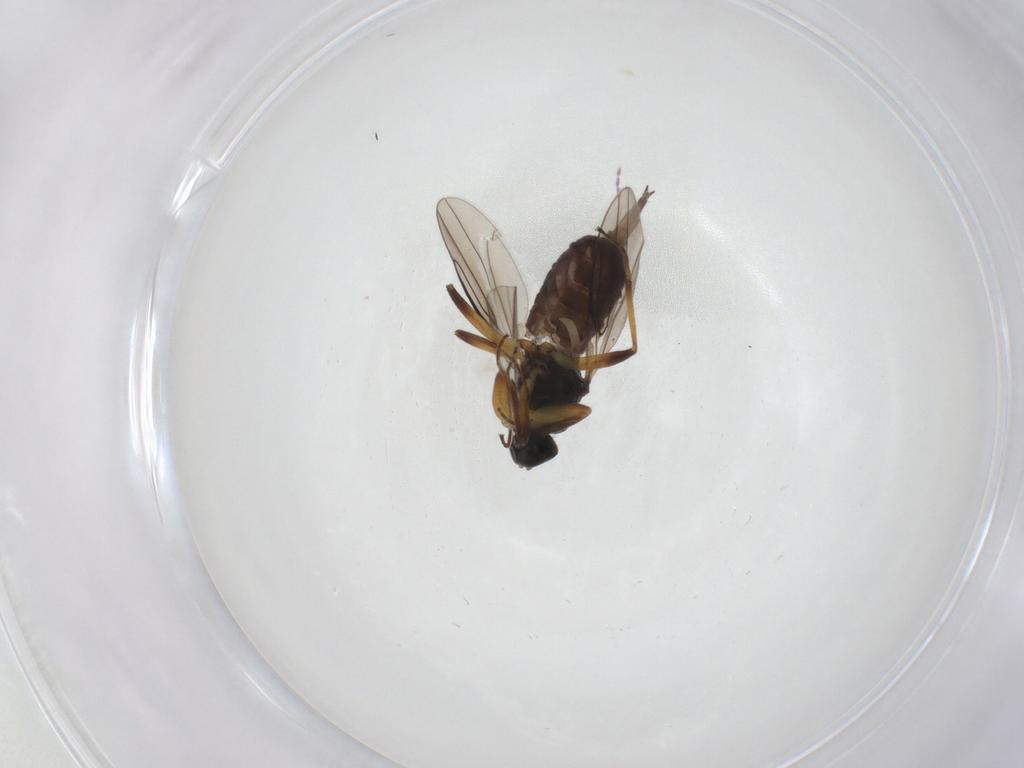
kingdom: Animalia
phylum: Arthropoda
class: Insecta
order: Diptera
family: Hybotidae
